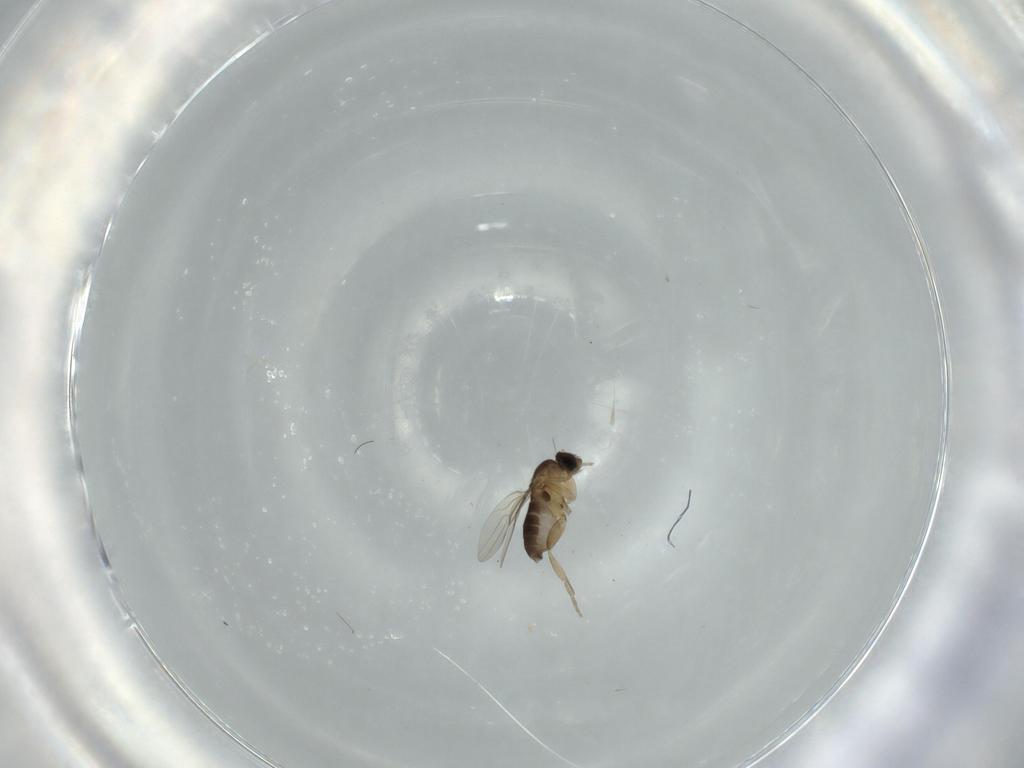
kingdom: Animalia
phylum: Arthropoda
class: Insecta
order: Diptera
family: Phoridae
